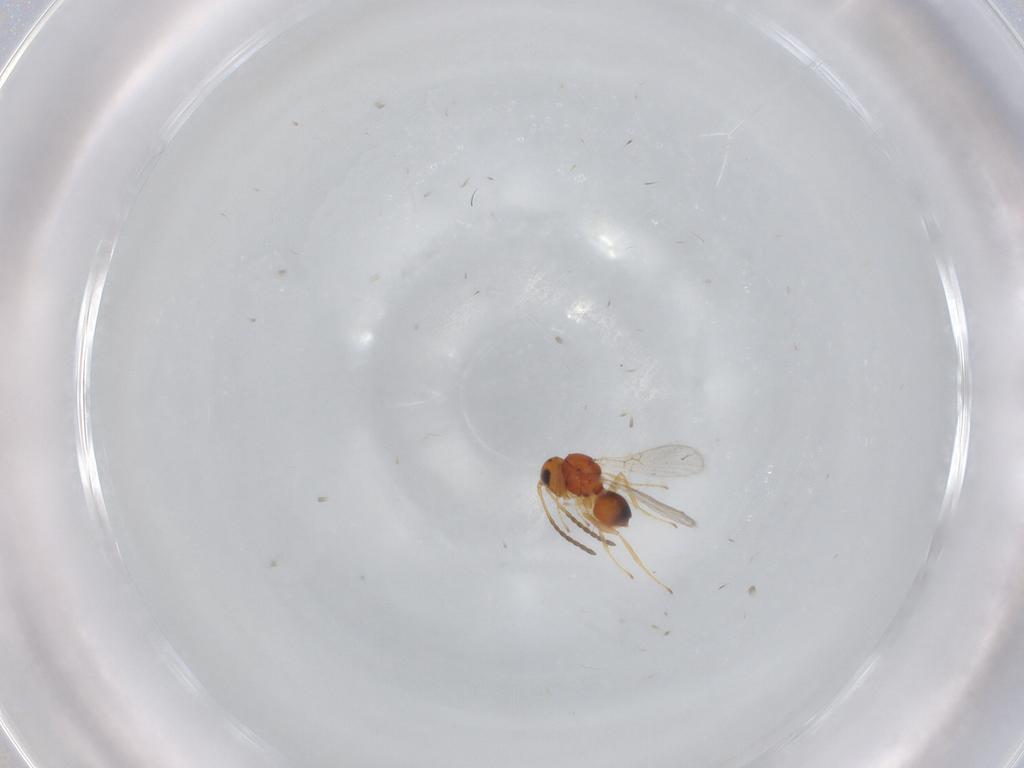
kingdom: Animalia
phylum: Arthropoda
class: Insecta
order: Hymenoptera
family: Figitidae
